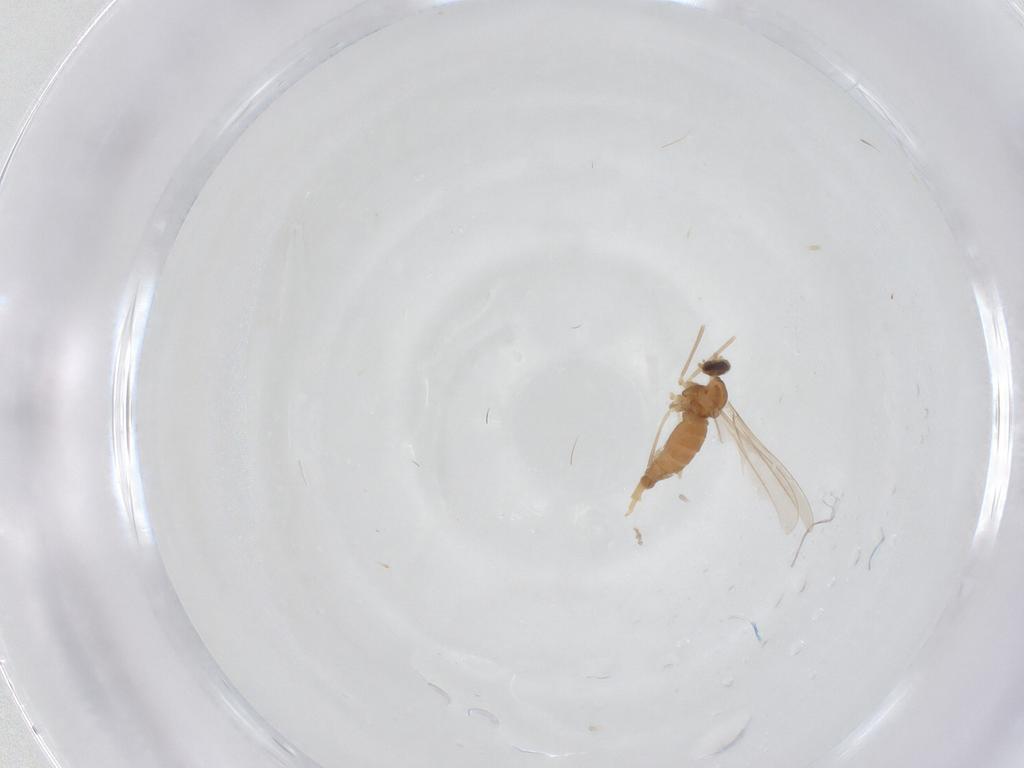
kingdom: Animalia
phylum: Arthropoda
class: Insecta
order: Diptera
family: Cecidomyiidae
